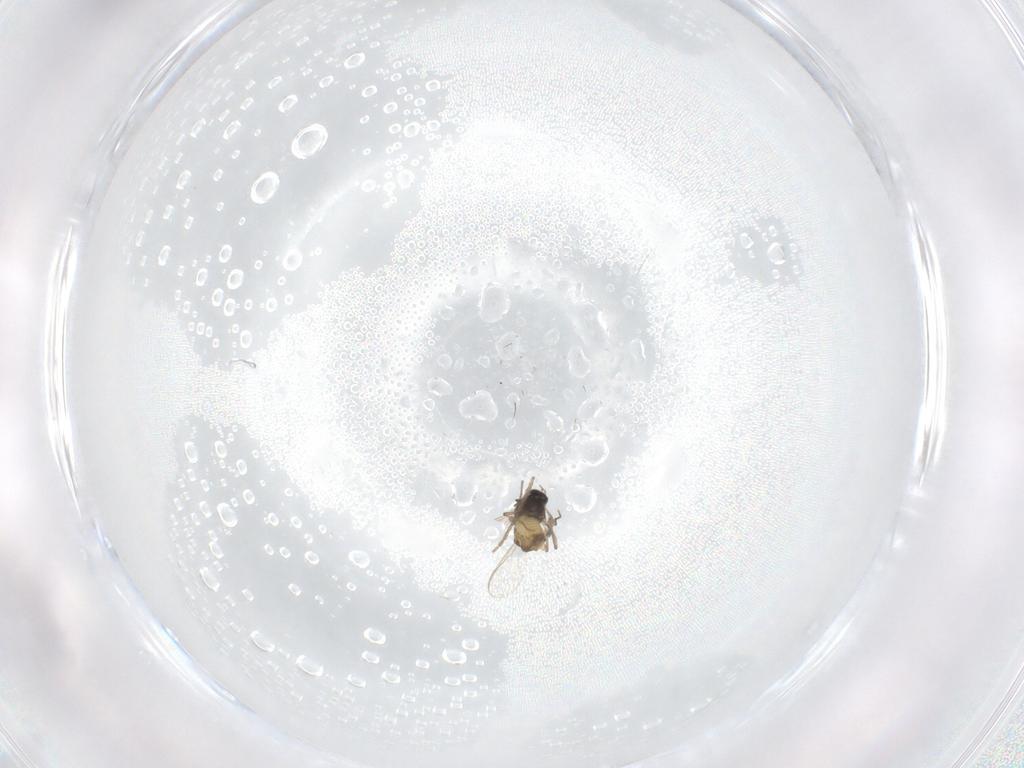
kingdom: Animalia
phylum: Arthropoda
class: Insecta
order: Diptera
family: Chironomidae
